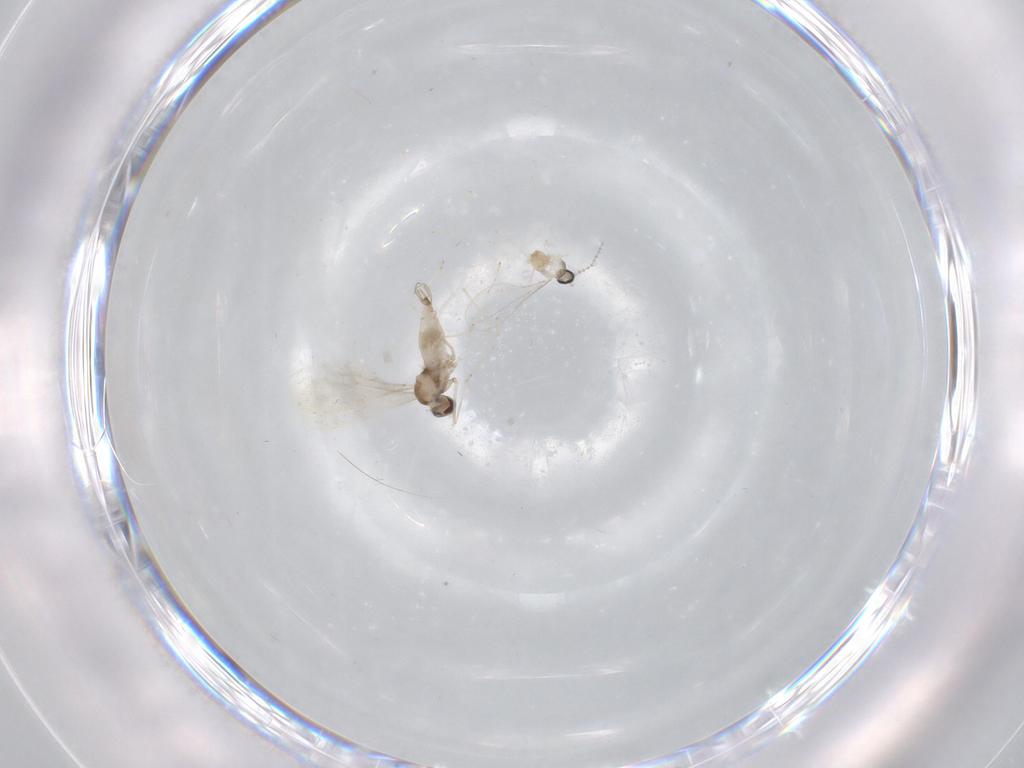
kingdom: Animalia
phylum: Arthropoda
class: Insecta
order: Diptera
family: Cecidomyiidae
